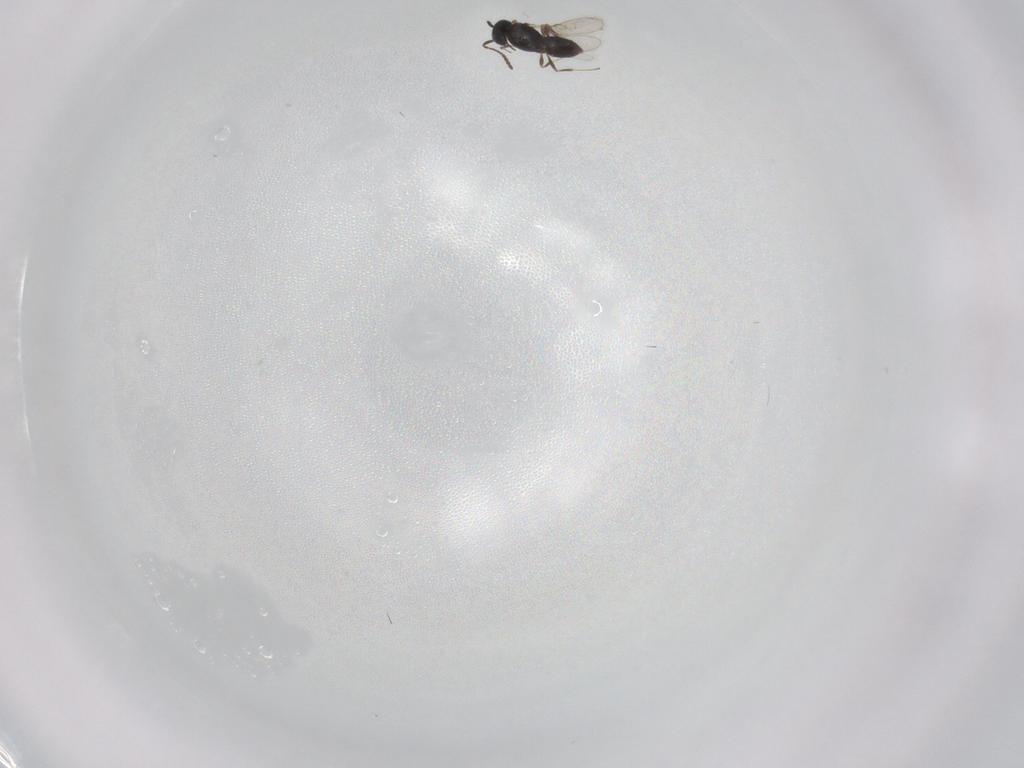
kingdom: Animalia
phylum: Arthropoda
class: Insecta
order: Hymenoptera
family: Scelionidae
